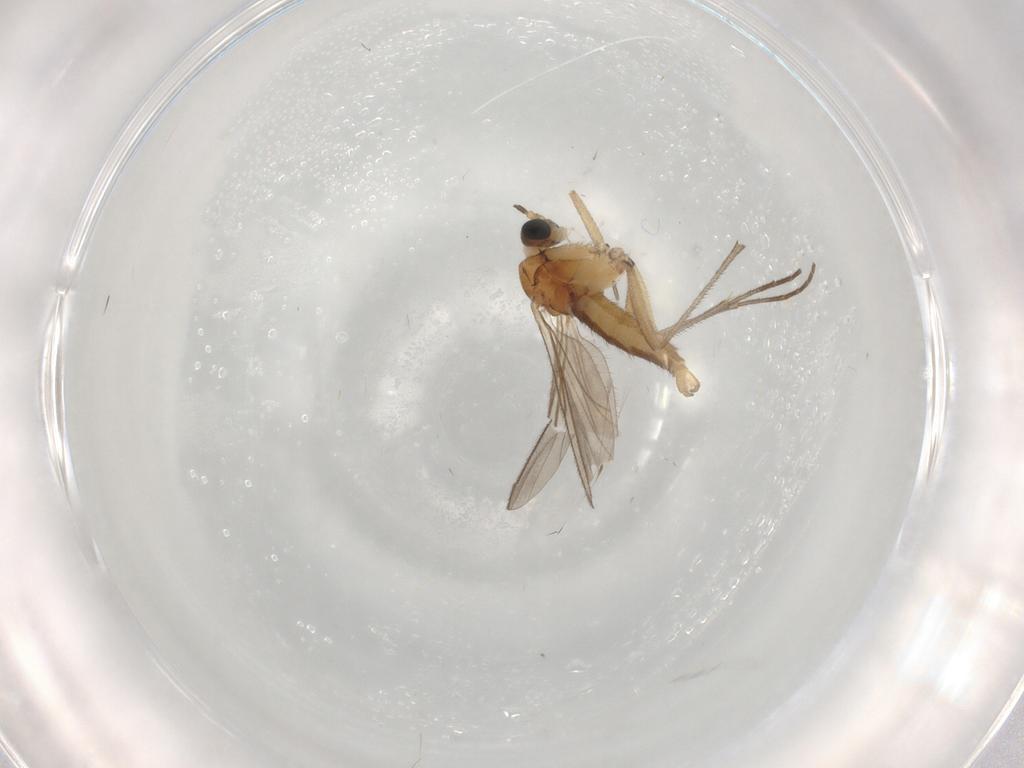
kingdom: Animalia
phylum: Arthropoda
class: Insecta
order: Diptera
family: Sciaridae
